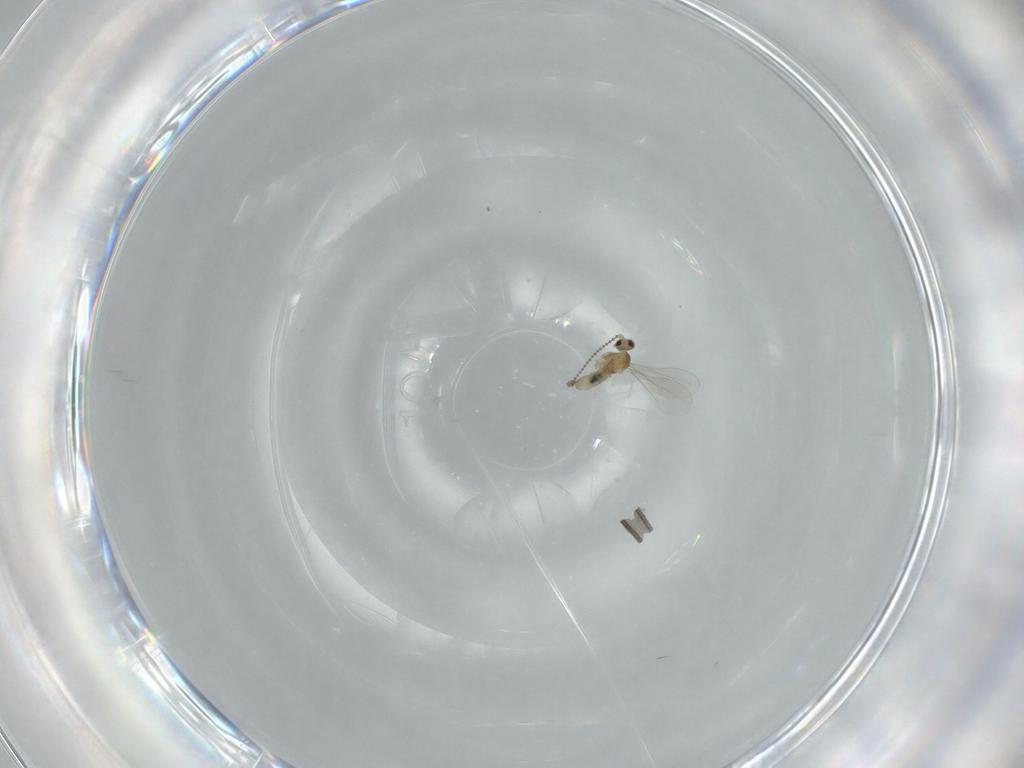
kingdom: Animalia
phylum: Arthropoda
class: Insecta
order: Diptera
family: Cecidomyiidae
